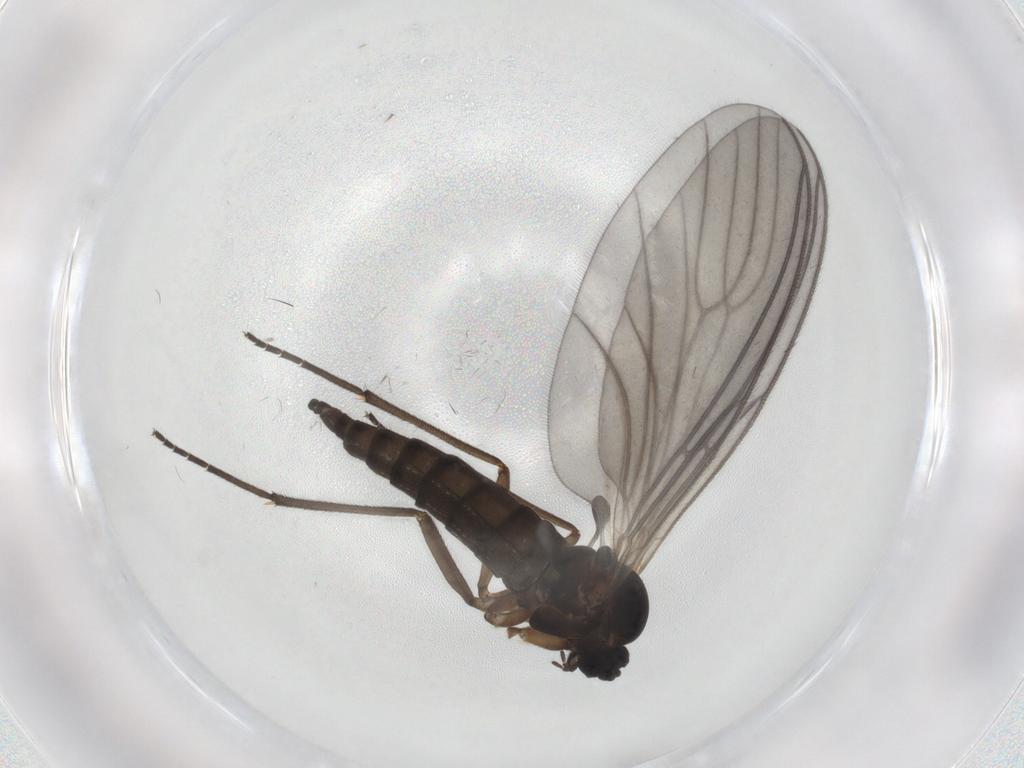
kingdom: Animalia
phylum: Arthropoda
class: Insecta
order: Diptera
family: Sciaridae
